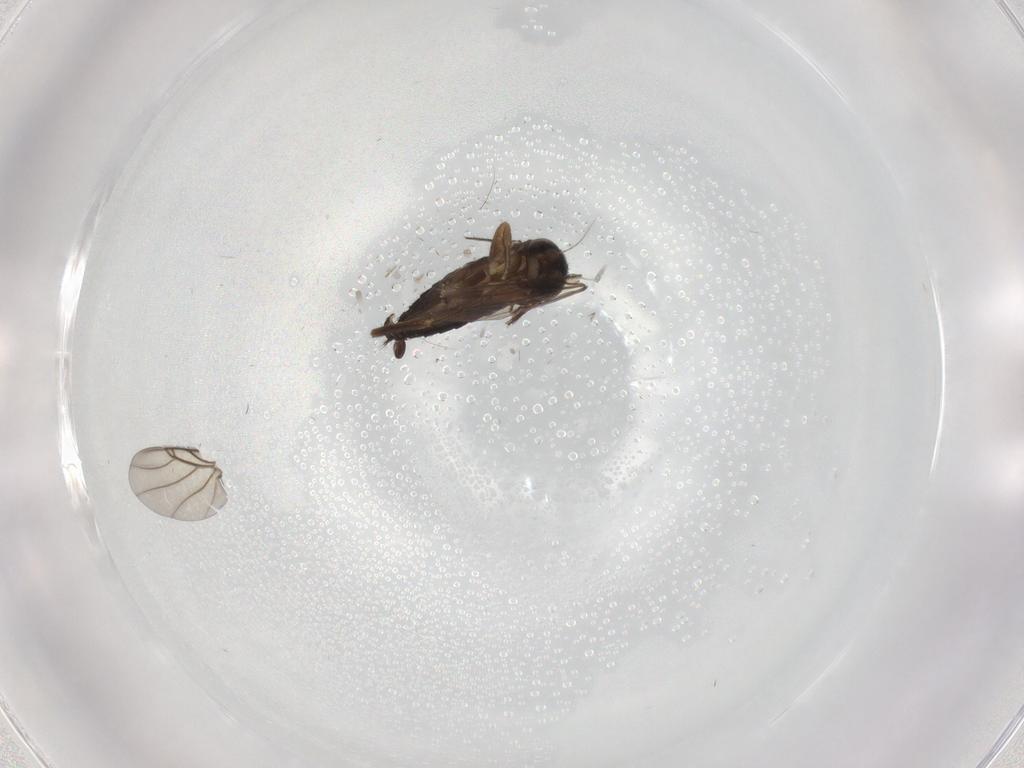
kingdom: Animalia
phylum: Arthropoda
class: Insecta
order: Diptera
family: Phoridae
